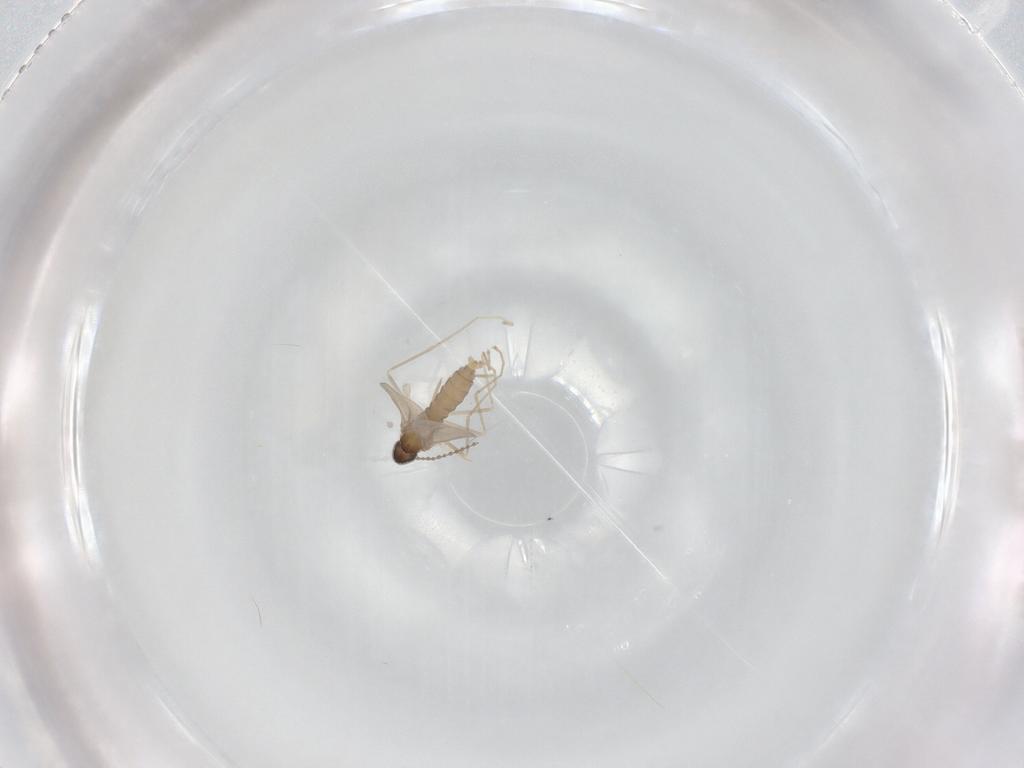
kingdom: Animalia
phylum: Arthropoda
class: Insecta
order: Diptera
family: Cecidomyiidae
